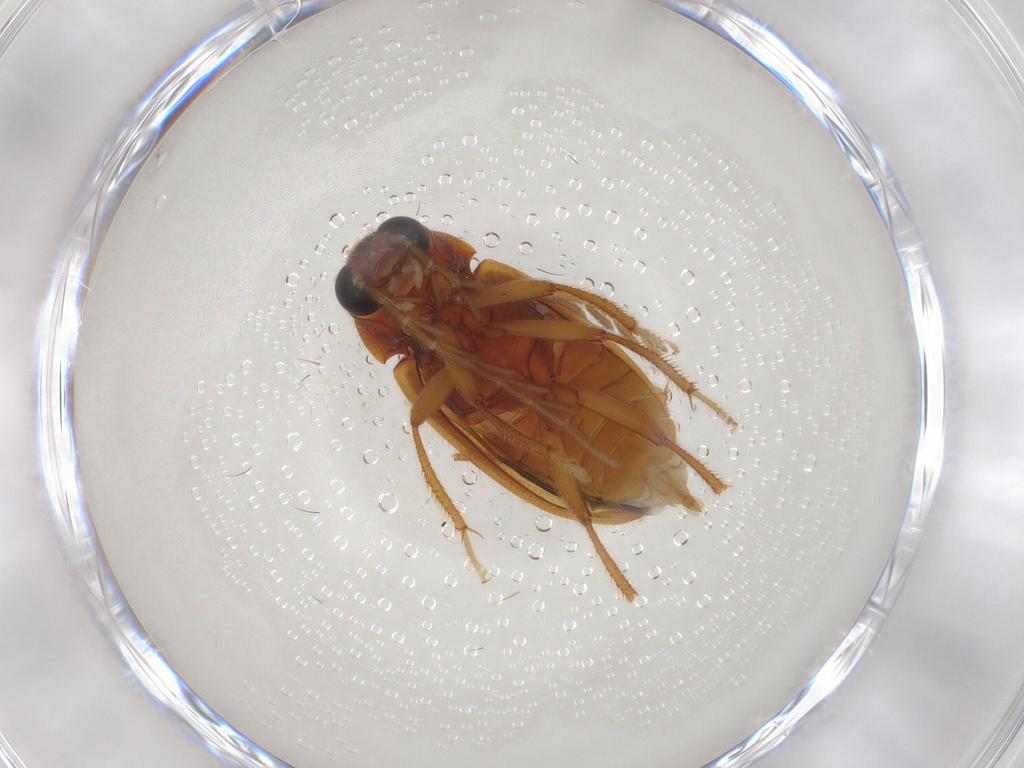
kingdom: Animalia
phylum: Arthropoda
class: Insecta
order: Coleoptera
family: Ptilodactylidae
